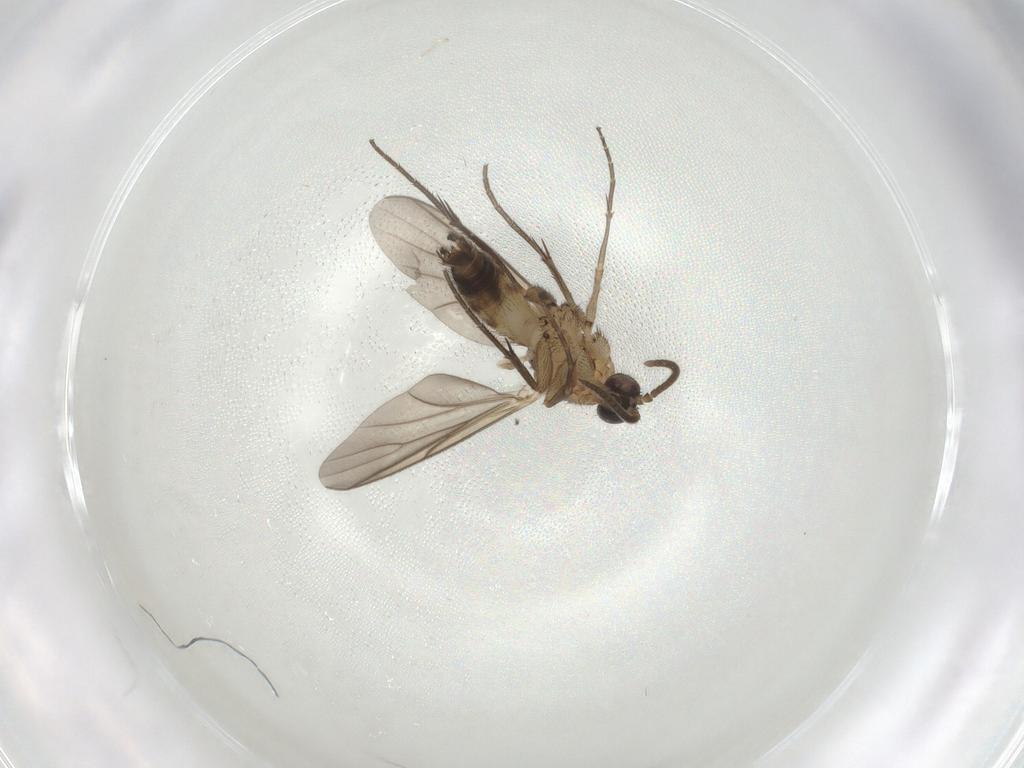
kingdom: Animalia
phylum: Arthropoda
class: Insecta
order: Diptera
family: Mycetophilidae
